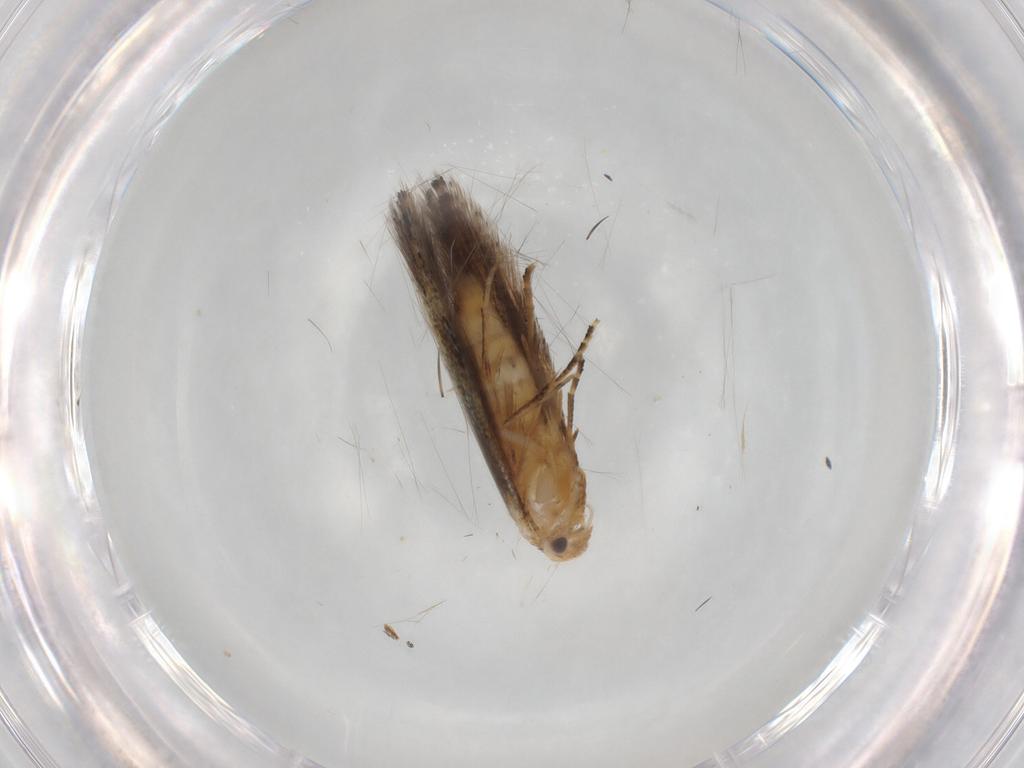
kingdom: Animalia
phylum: Arthropoda
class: Insecta
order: Lepidoptera
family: Bucculatricidae
